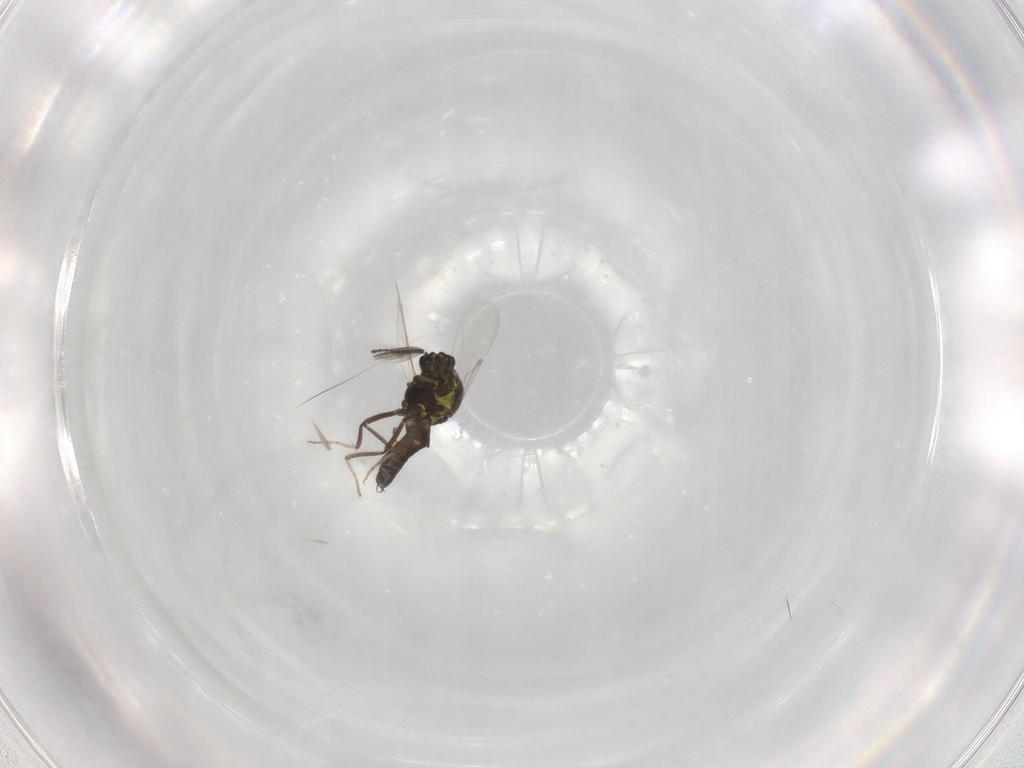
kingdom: Animalia
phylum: Arthropoda
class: Insecta
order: Diptera
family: Ceratopogonidae
